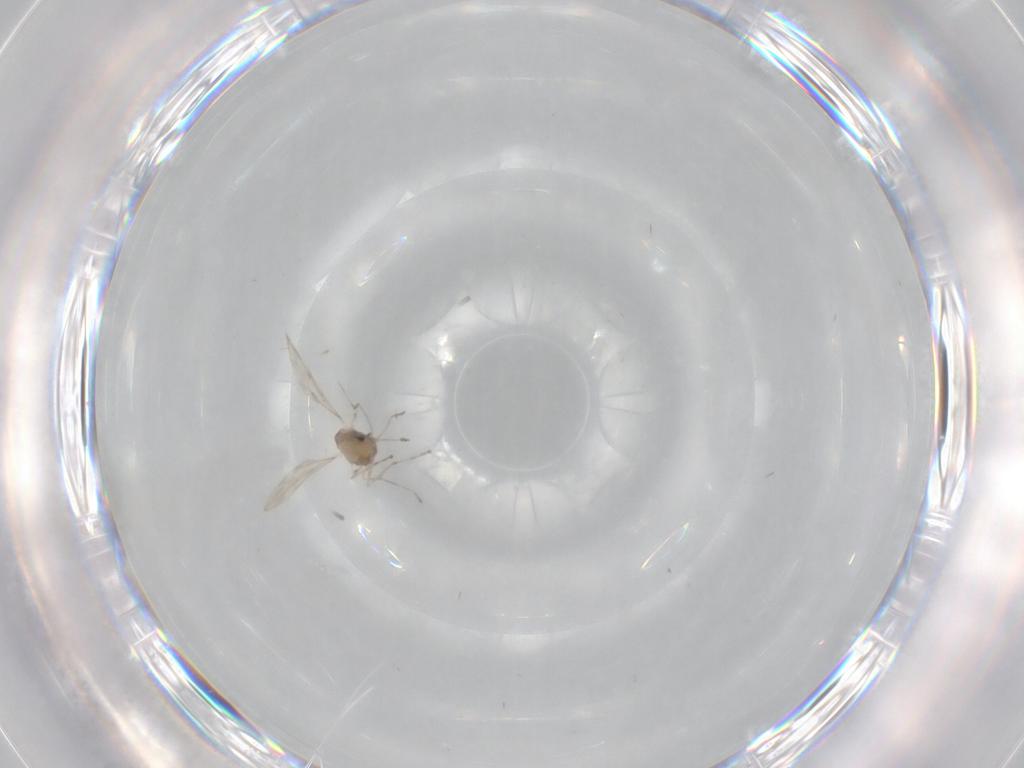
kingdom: Animalia
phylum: Arthropoda
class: Insecta
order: Diptera
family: Cecidomyiidae
